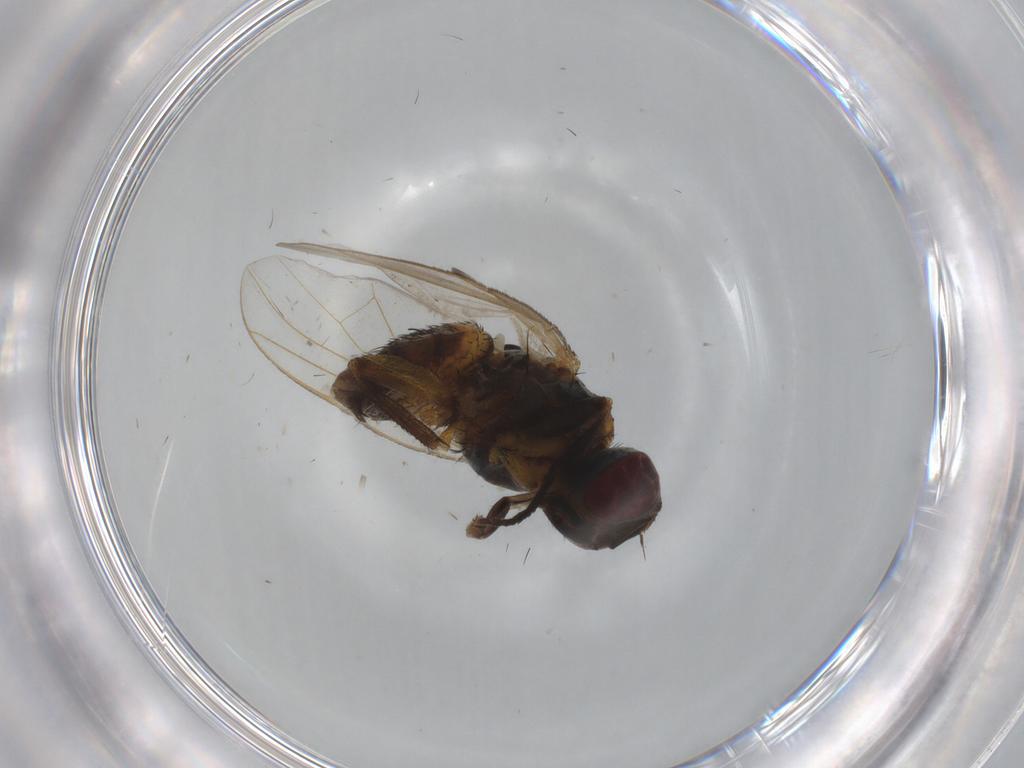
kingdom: Animalia
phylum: Arthropoda
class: Insecta
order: Diptera
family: Muscidae
